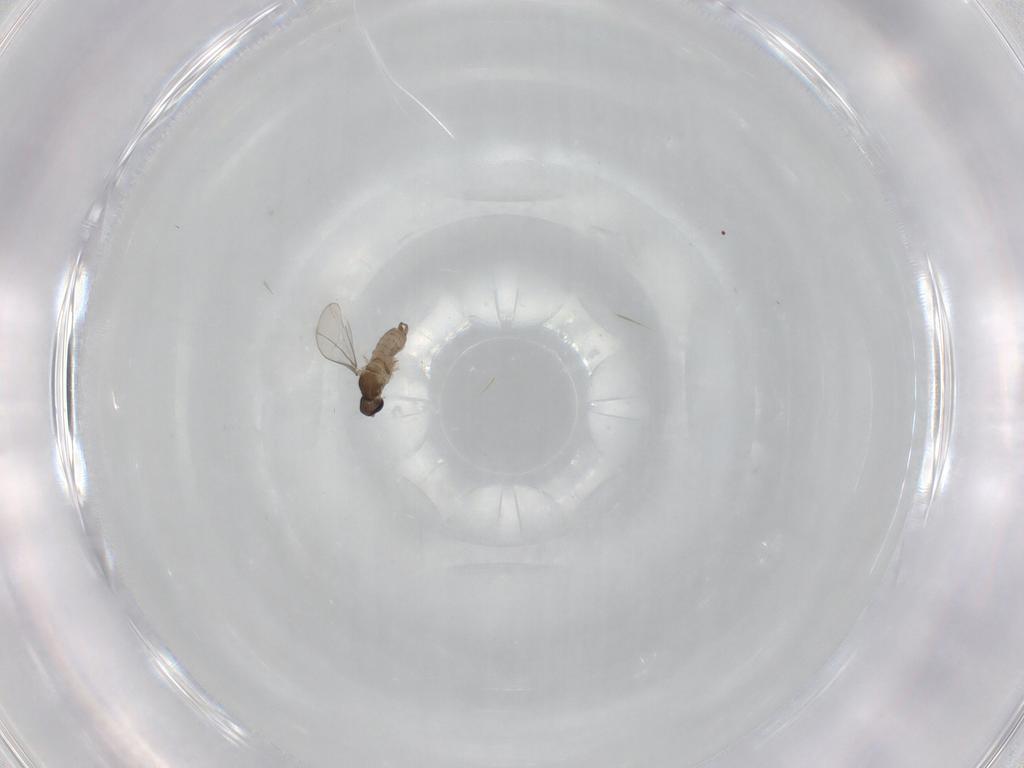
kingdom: Animalia
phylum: Arthropoda
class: Insecta
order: Diptera
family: Cecidomyiidae
